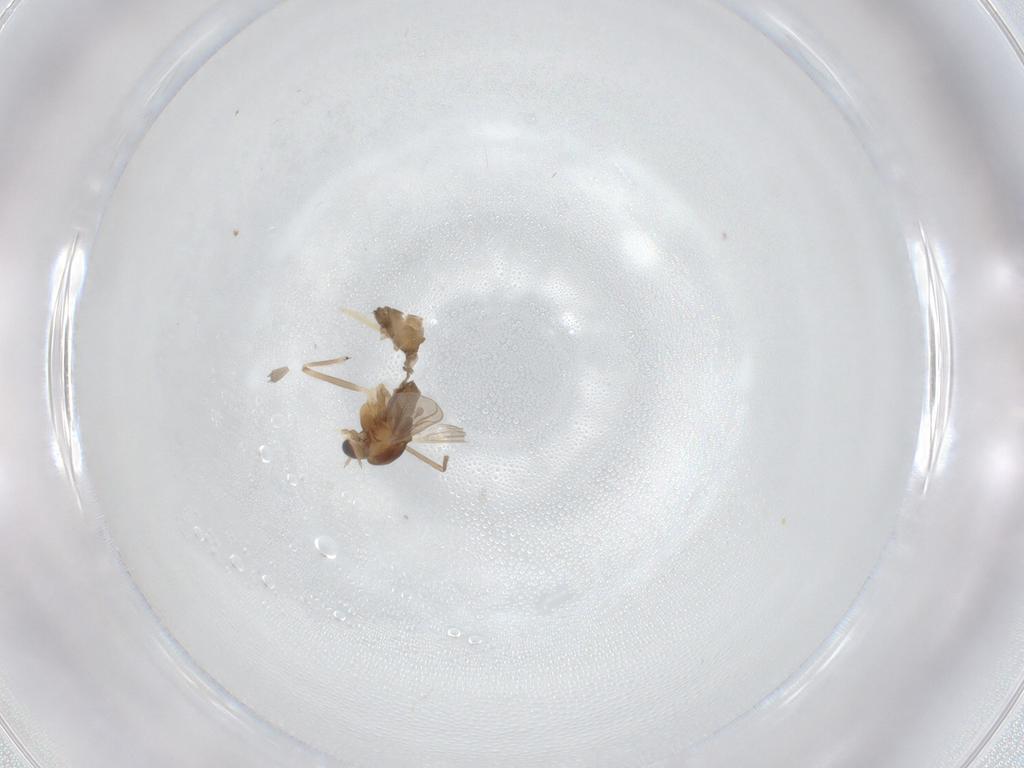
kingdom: Animalia
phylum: Arthropoda
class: Insecta
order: Diptera
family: Chironomidae
